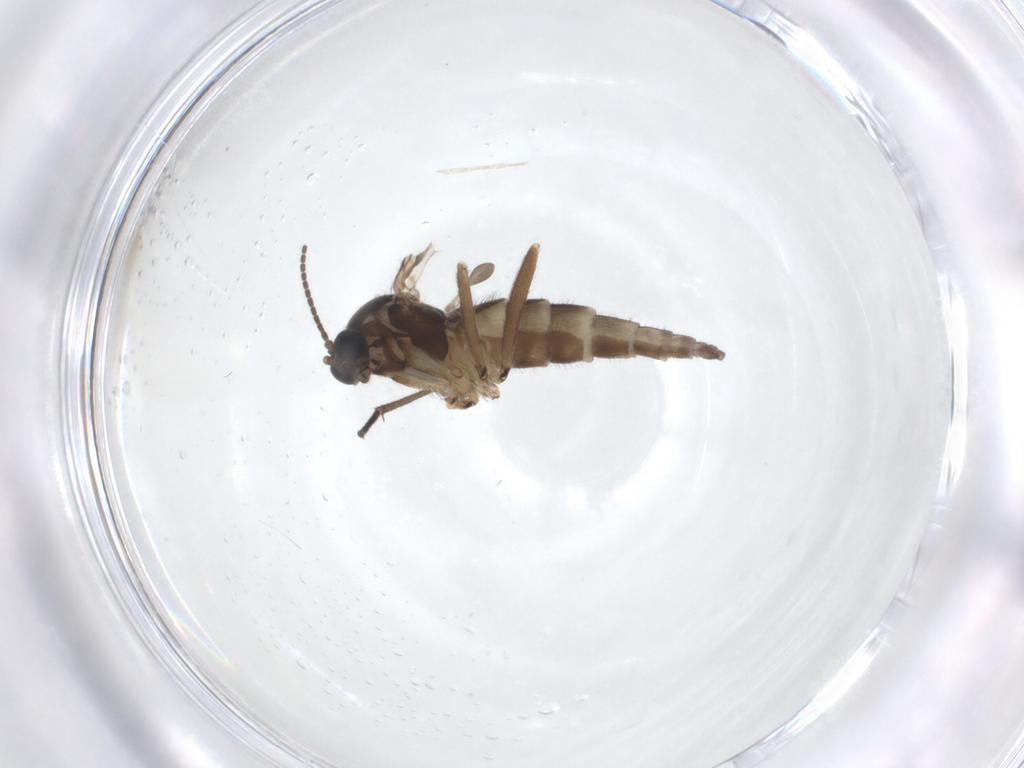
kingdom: Animalia
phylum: Arthropoda
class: Insecta
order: Diptera
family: Sciaridae
